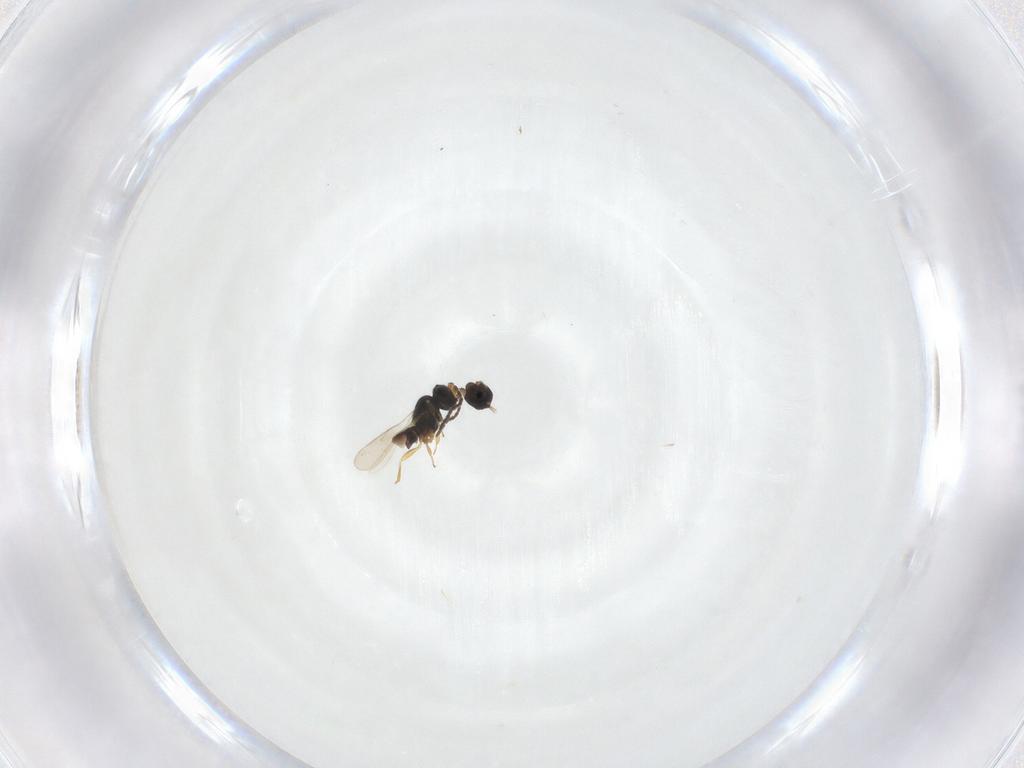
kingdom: Animalia
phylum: Arthropoda
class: Insecta
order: Hymenoptera
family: Scelionidae
